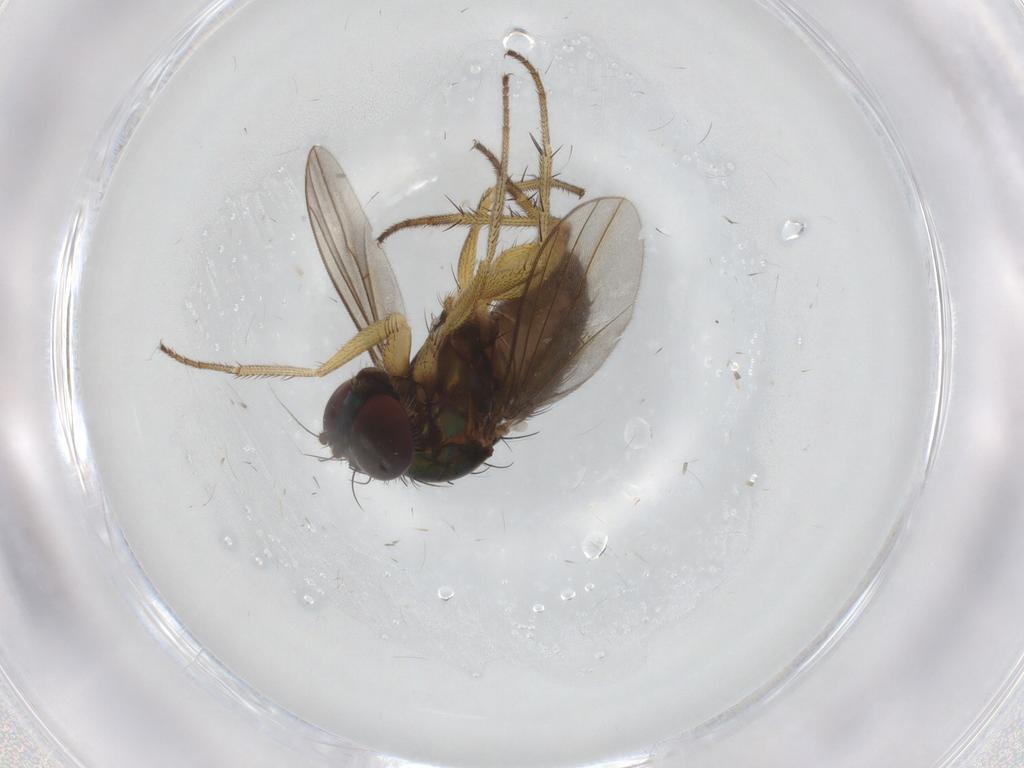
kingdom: Animalia
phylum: Arthropoda
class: Insecta
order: Diptera
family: Dolichopodidae
